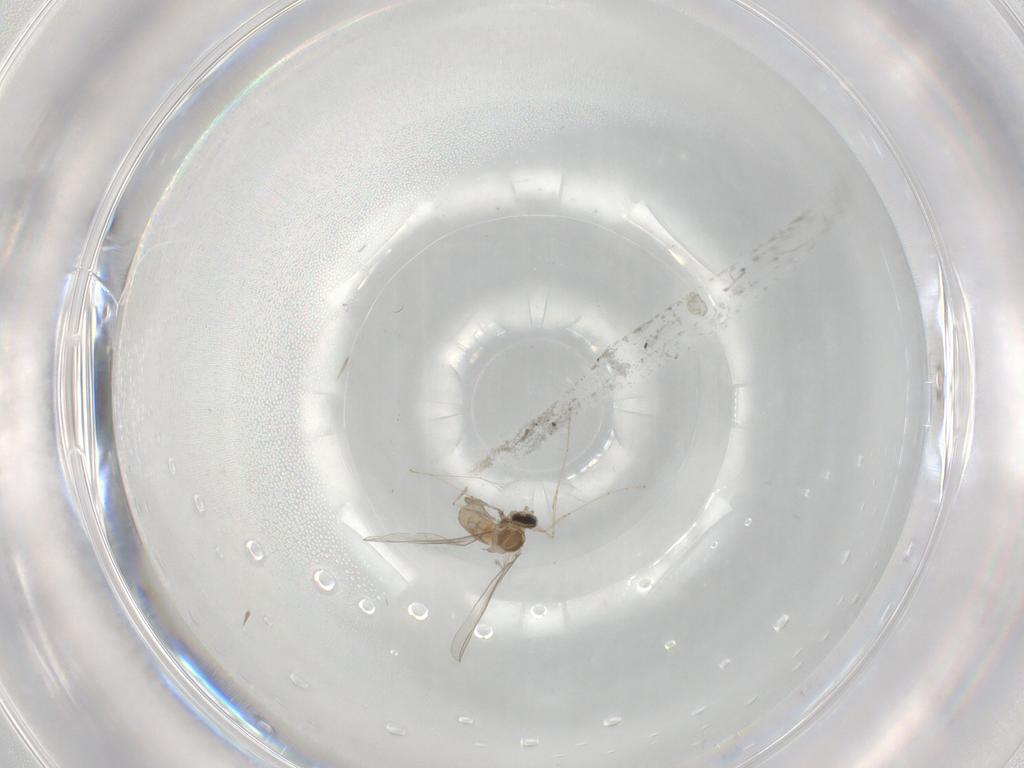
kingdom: Animalia
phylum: Arthropoda
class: Insecta
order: Diptera
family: Cecidomyiidae
